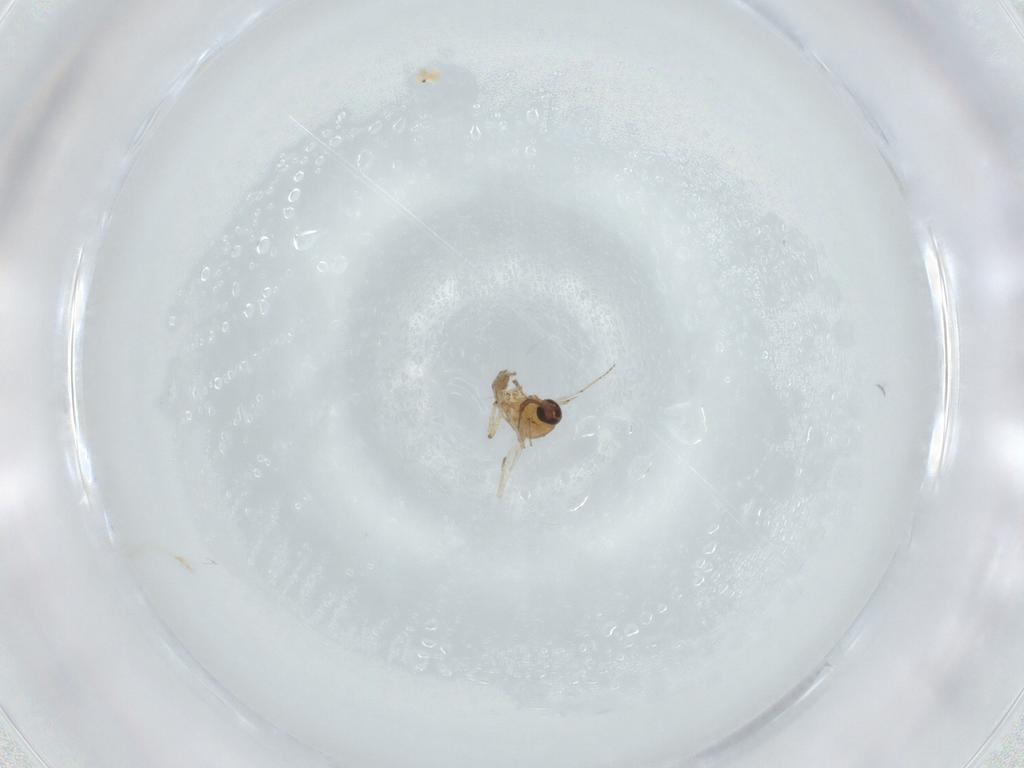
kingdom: Animalia
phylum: Arthropoda
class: Insecta
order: Diptera
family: Ceratopogonidae
